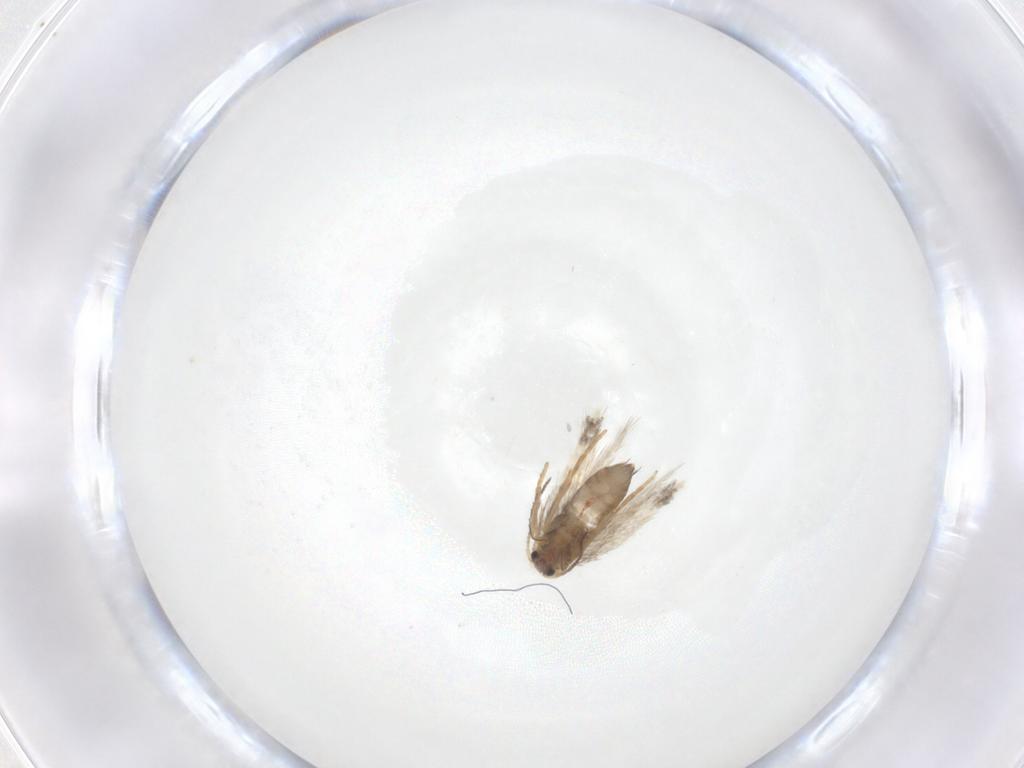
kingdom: Animalia
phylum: Arthropoda
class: Insecta
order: Lepidoptera
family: Nepticulidae
